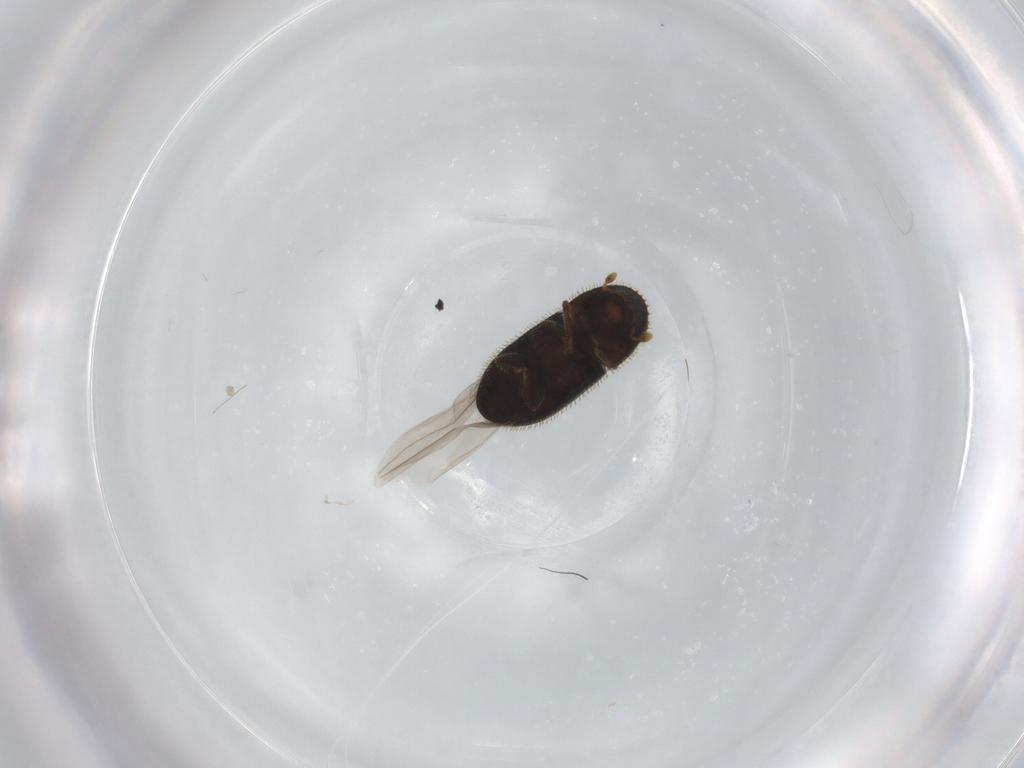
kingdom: Animalia
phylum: Arthropoda
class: Insecta
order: Coleoptera
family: Curculionidae
